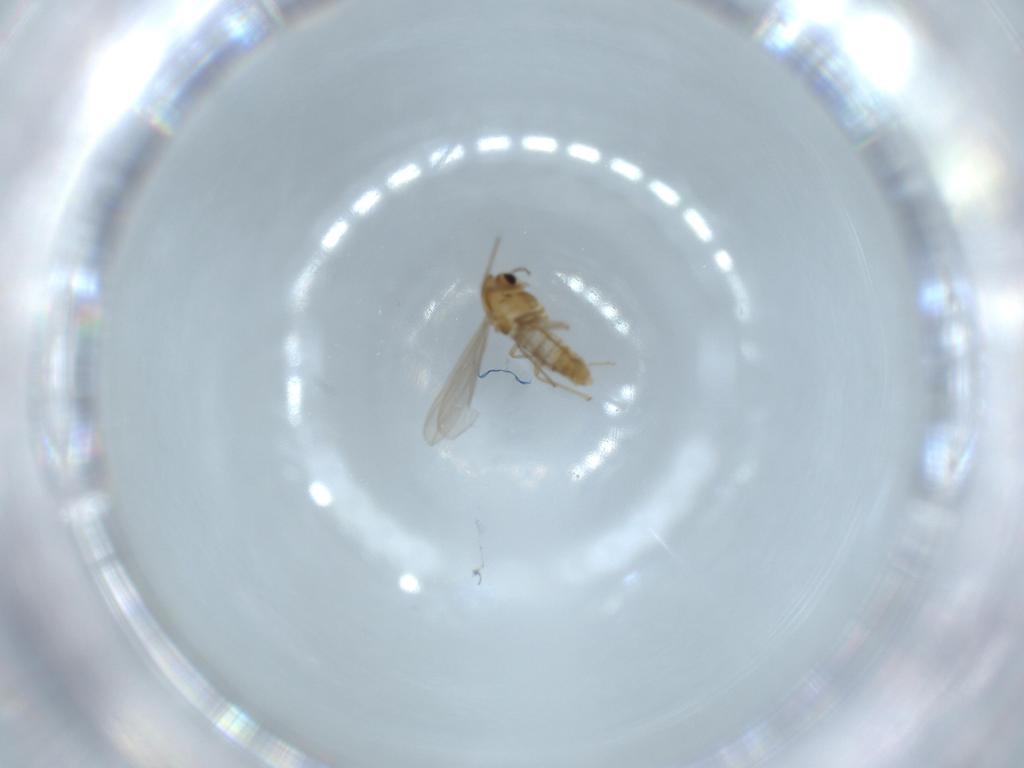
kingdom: Animalia
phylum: Arthropoda
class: Insecta
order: Diptera
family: Chironomidae
